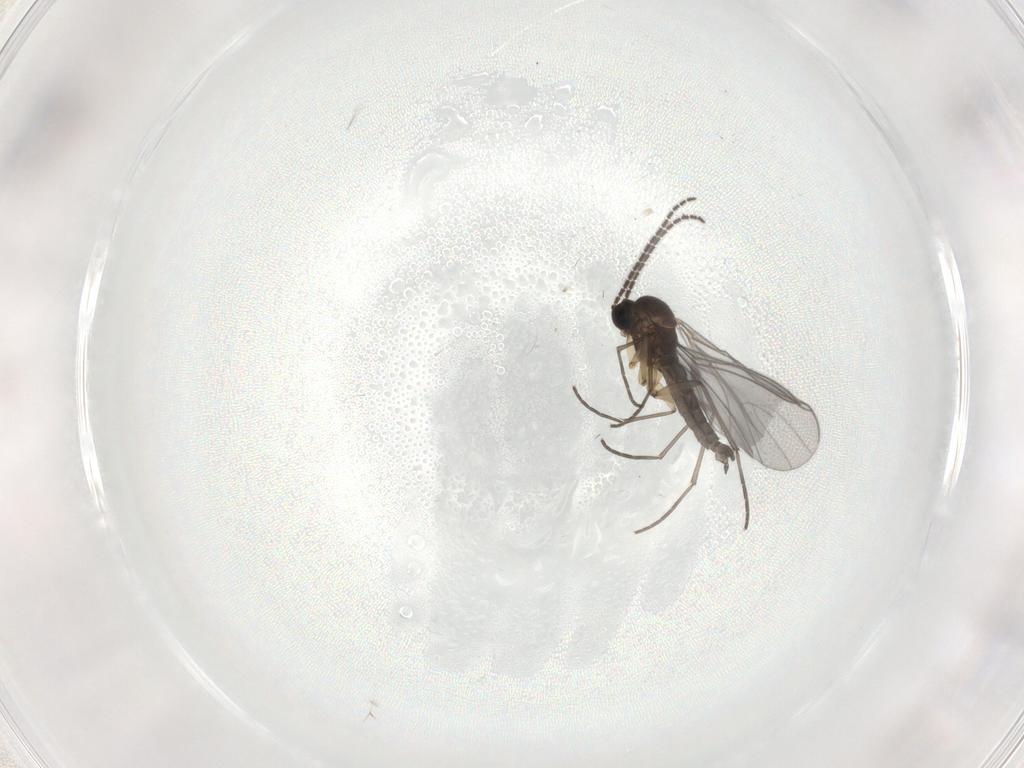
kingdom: Animalia
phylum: Arthropoda
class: Insecta
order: Diptera
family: Sciaridae
